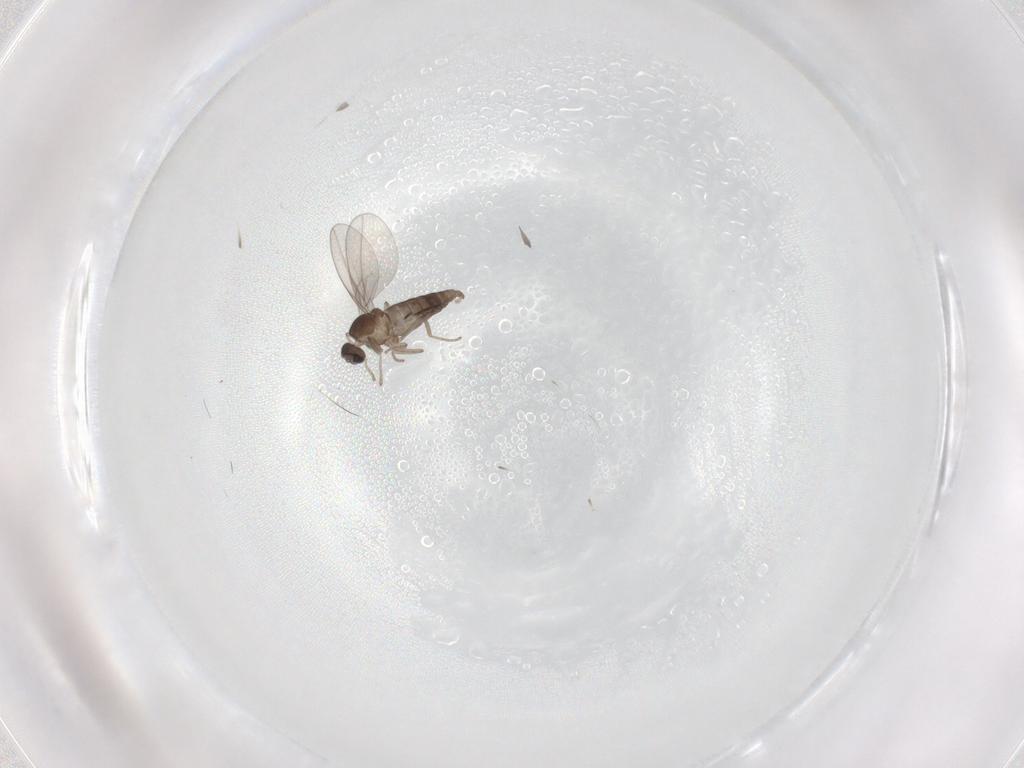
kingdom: Animalia
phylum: Arthropoda
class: Insecta
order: Diptera
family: Cecidomyiidae
